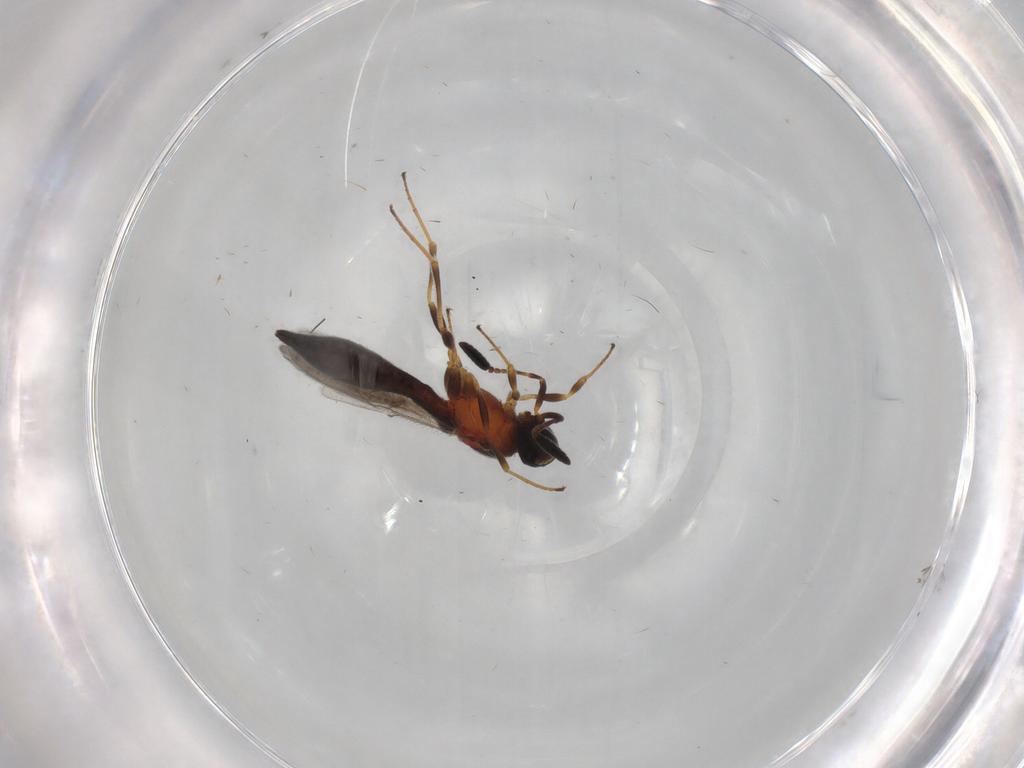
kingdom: Animalia
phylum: Arthropoda
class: Insecta
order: Hymenoptera
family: Scelionidae
